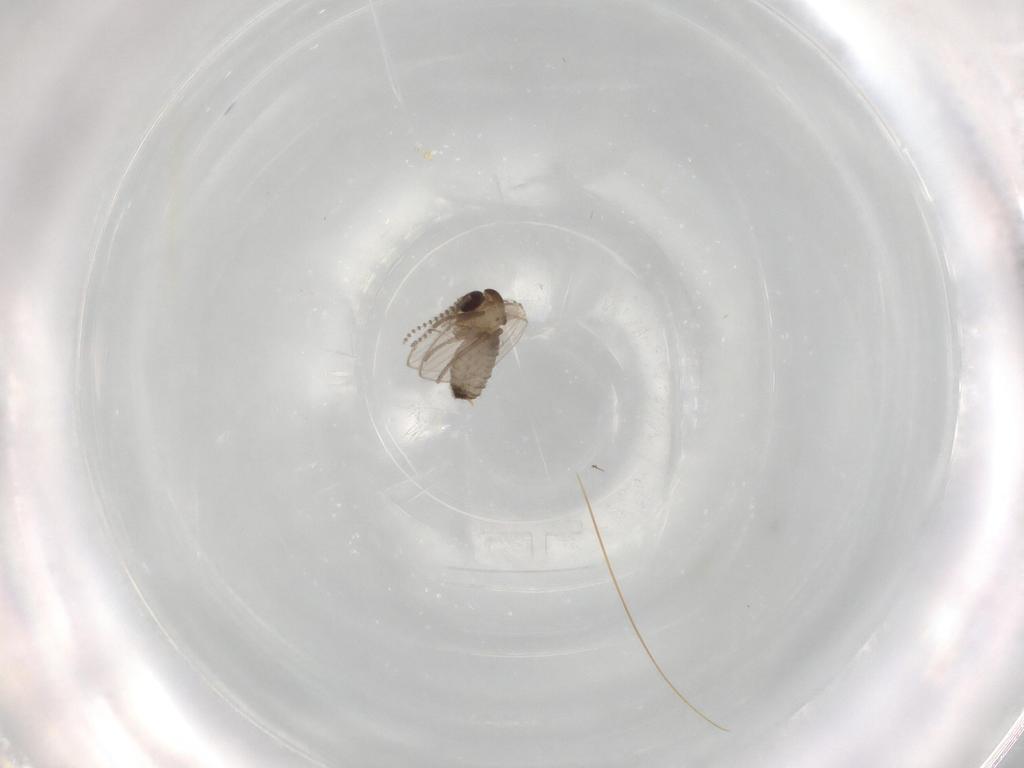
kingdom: Animalia
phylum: Arthropoda
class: Insecta
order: Diptera
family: Psychodidae
